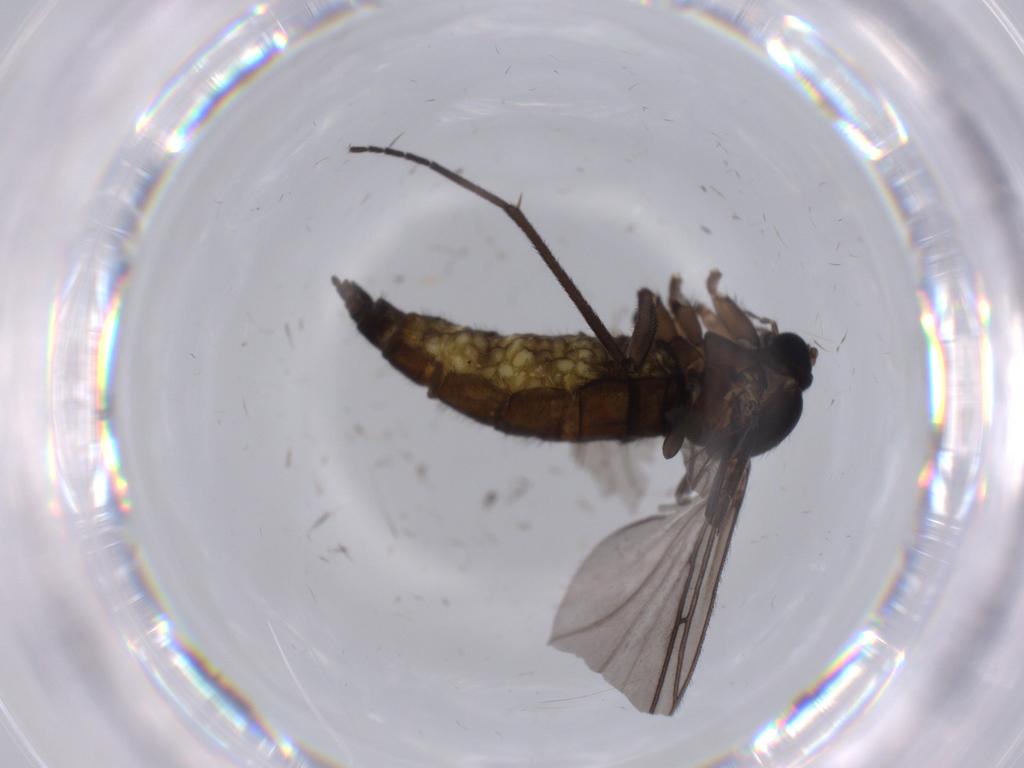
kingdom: Animalia
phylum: Arthropoda
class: Insecta
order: Diptera
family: Sciaridae
